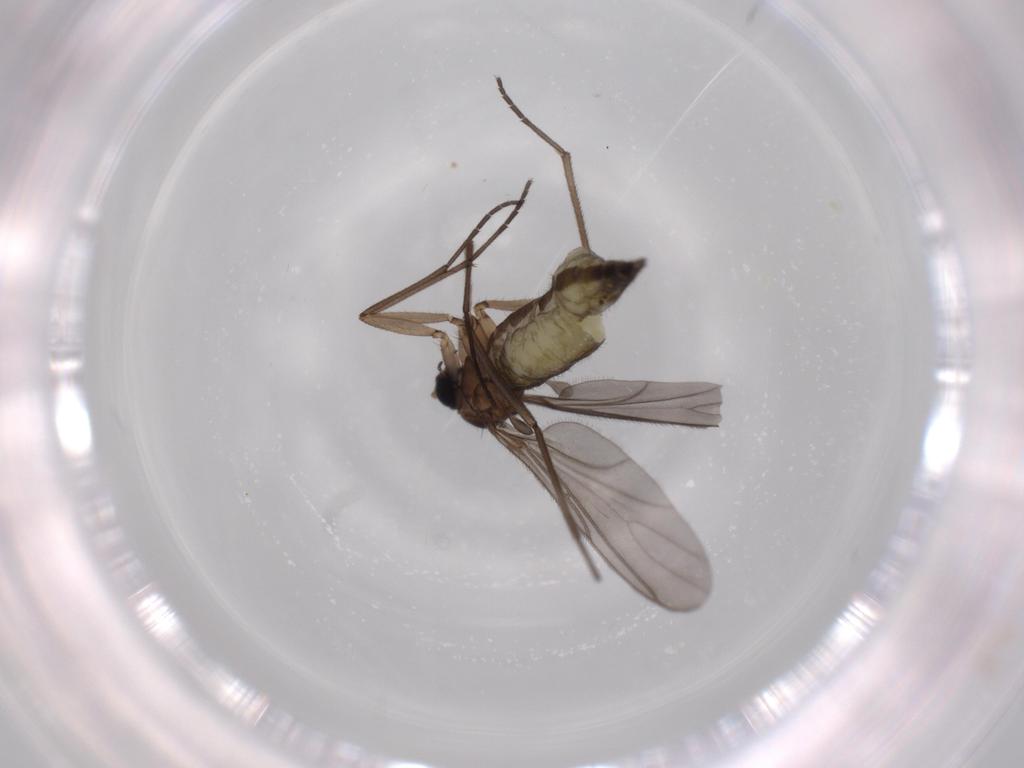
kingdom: Animalia
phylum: Arthropoda
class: Insecta
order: Diptera
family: Sciaridae
